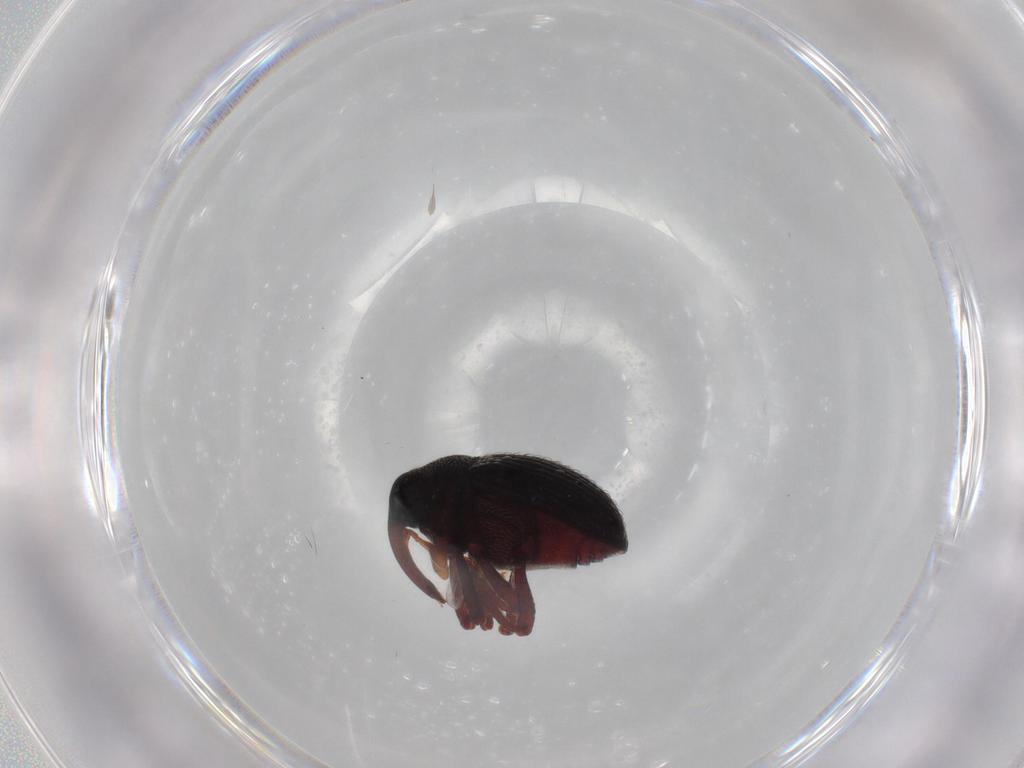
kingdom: Animalia
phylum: Arthropoda
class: Insecta
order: Coleoptera
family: Curculionidae
